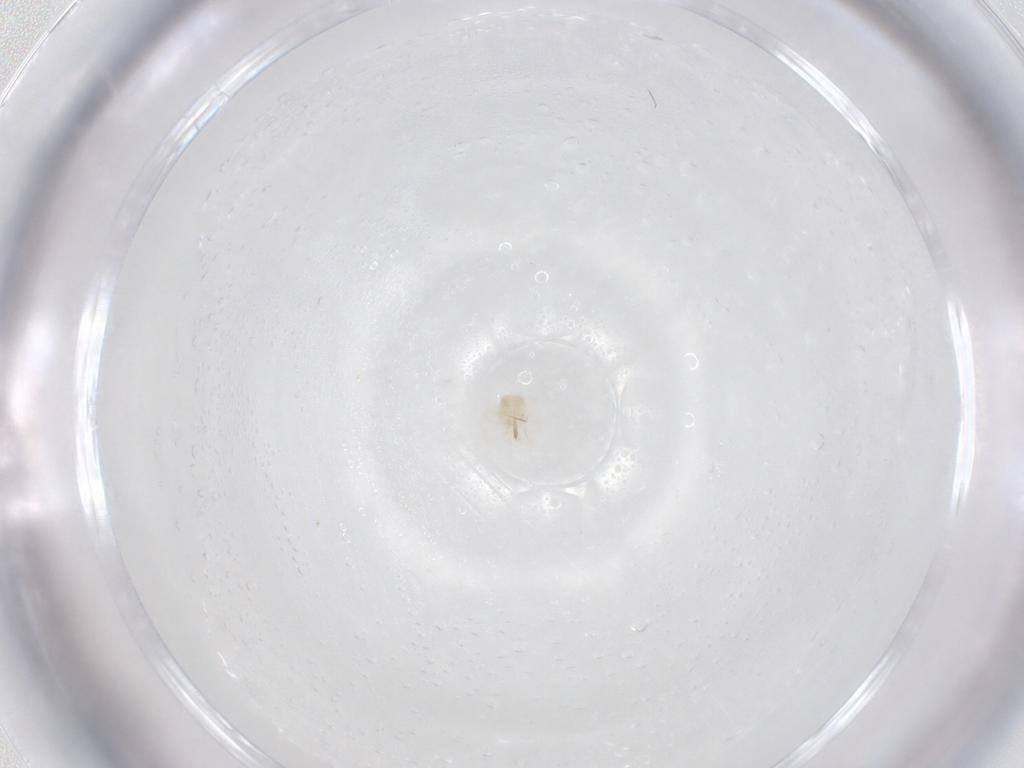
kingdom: Animalia
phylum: Arthropoda
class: Arachnida
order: Trombidiformes
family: Anystidae
